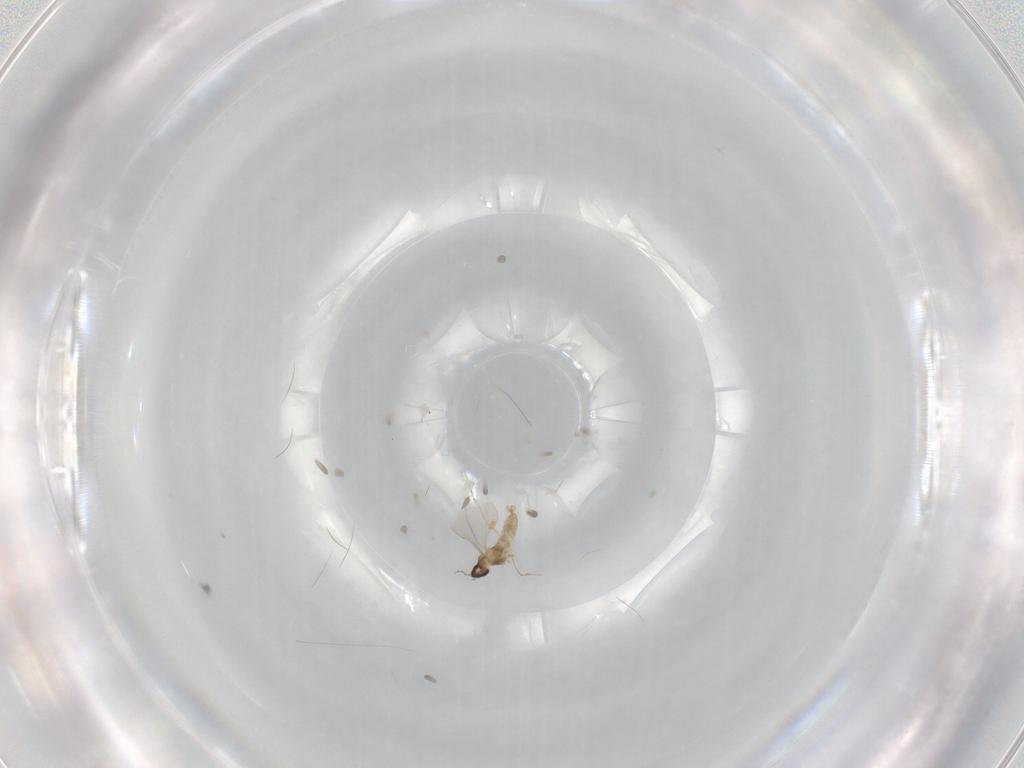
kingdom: Animalia
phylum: Arthropoda
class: Insecta
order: Diptera
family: Cecidomyiidae
